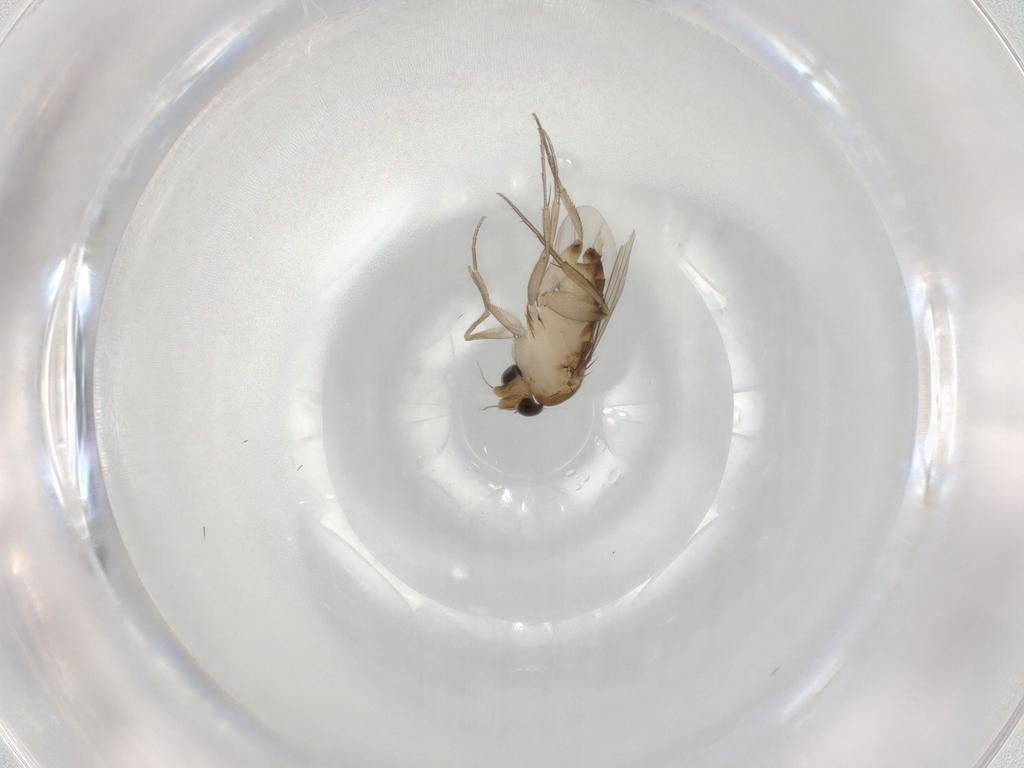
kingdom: Animalia
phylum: Arthropoda
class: Insecta
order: Diptera
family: Cecidomyiidae
